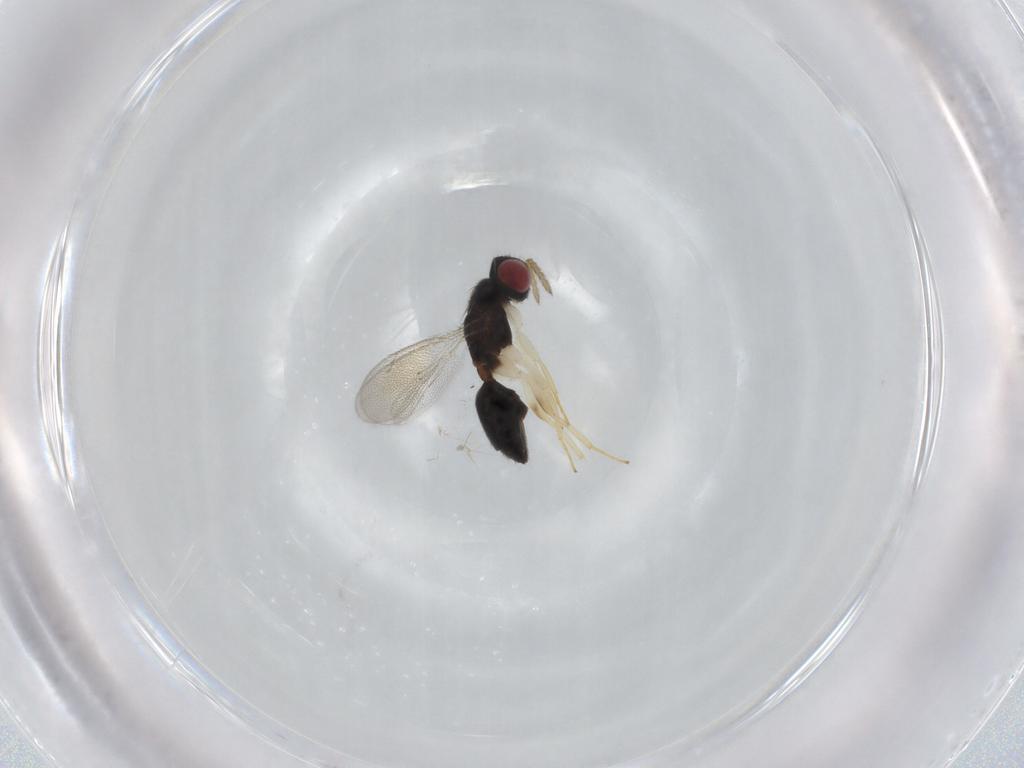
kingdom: Animalia
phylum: Arthropoda
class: Insecta
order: Hymenoptera
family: Eulophidae
